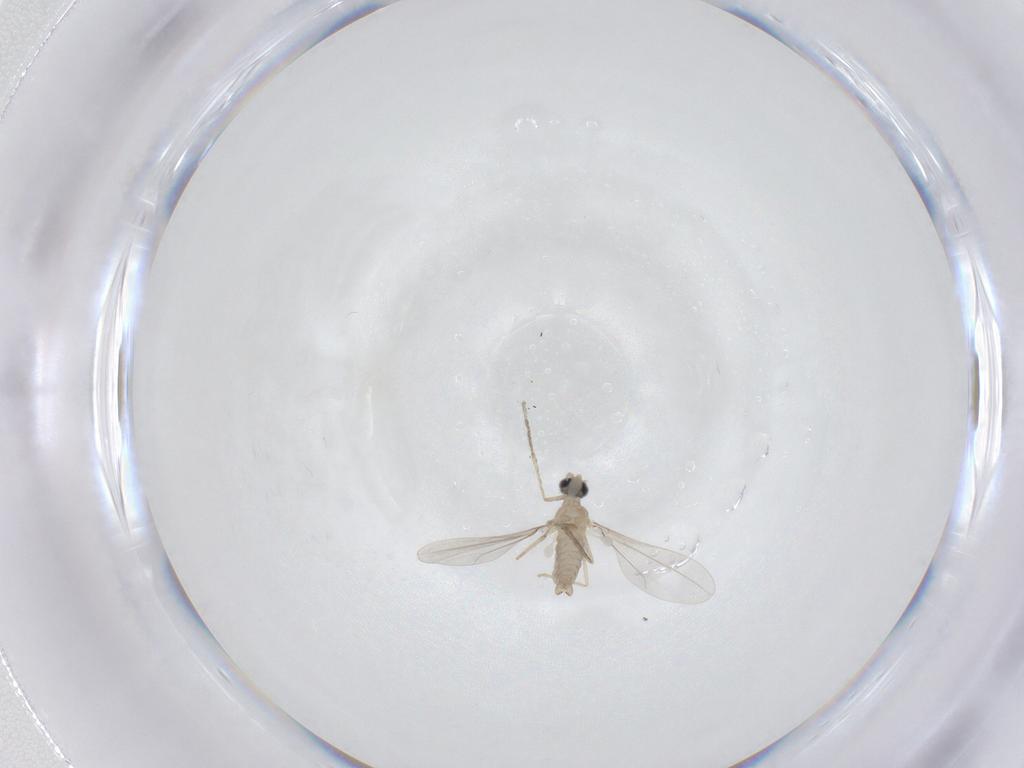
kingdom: Animalia
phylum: Arthropoda
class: Insecta
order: Diptera
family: Cecidomyiidae
